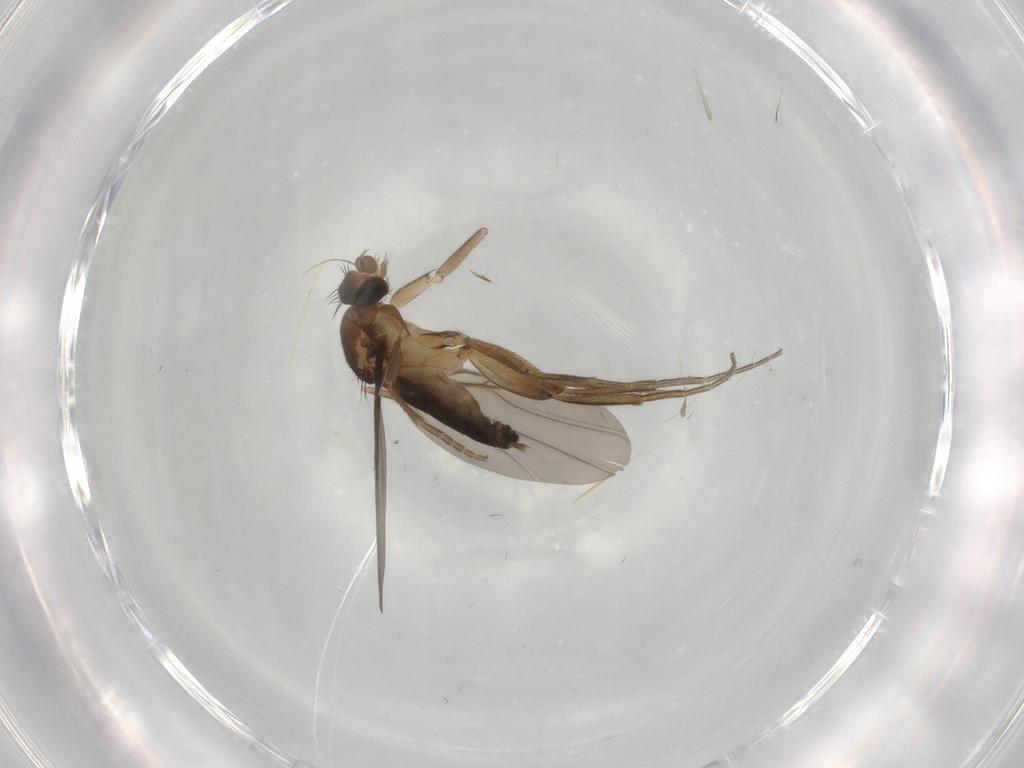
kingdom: Animalia
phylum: Arthropoda
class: Insecta
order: Diptera
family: Phoridae
